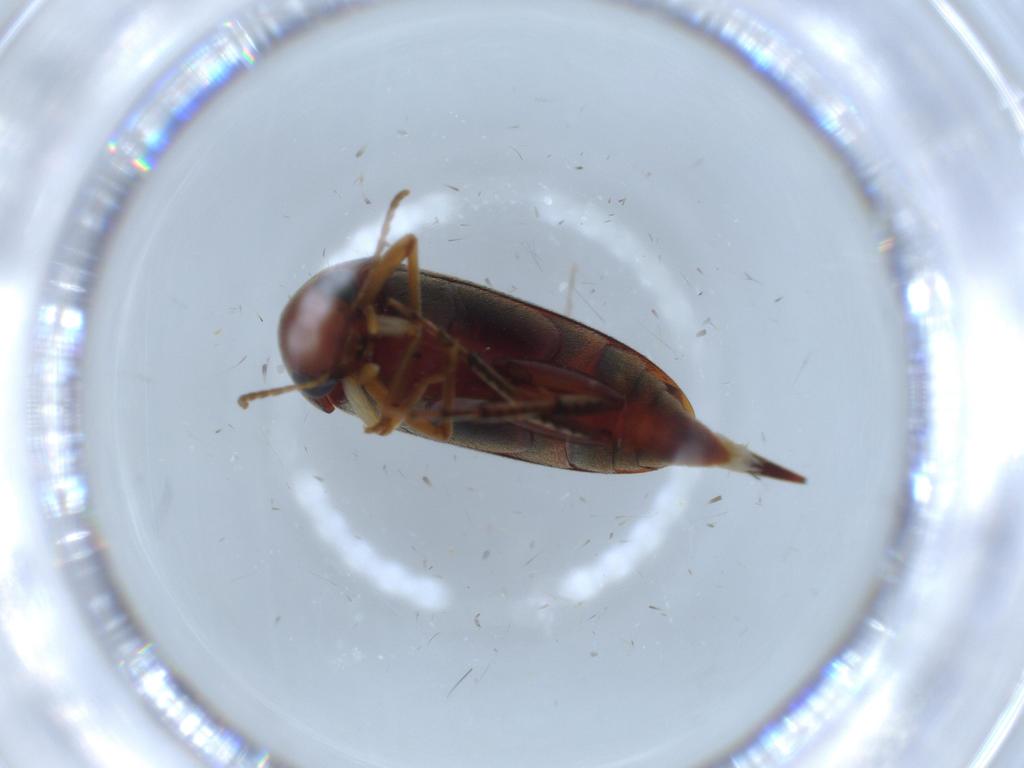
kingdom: Animalia
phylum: Arthropoda
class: Insecta
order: Coleoptera
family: Scraptiidae
